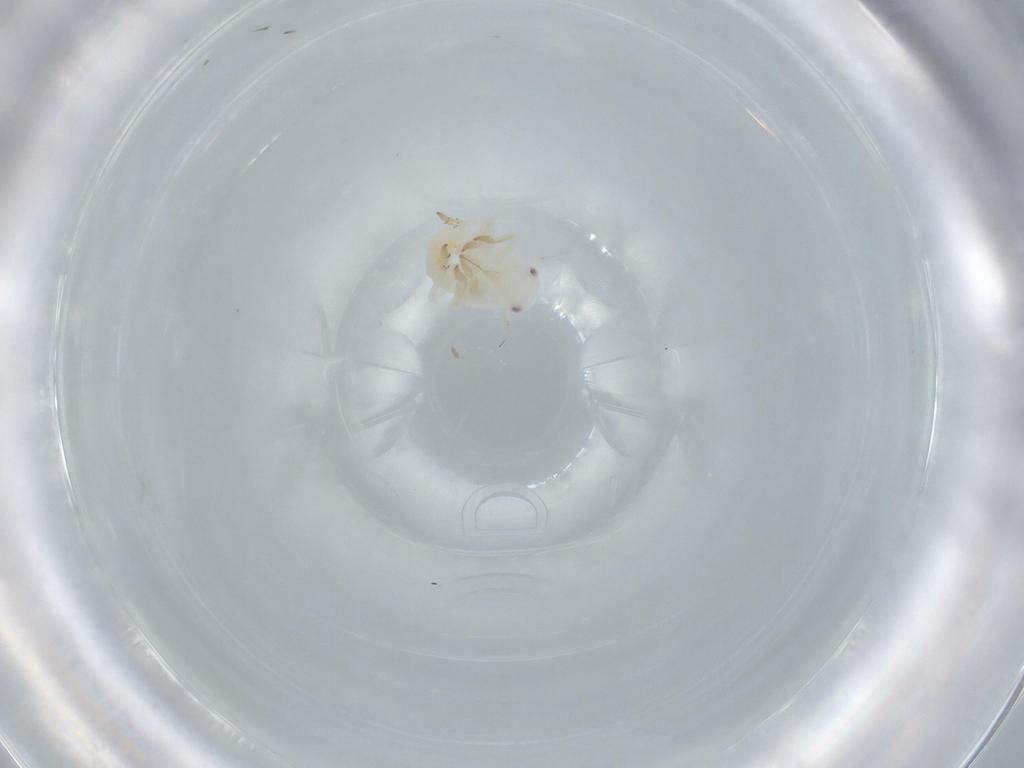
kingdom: Animalia
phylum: Arthropoda
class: Insecta
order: Hemiptera
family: Flatidae
